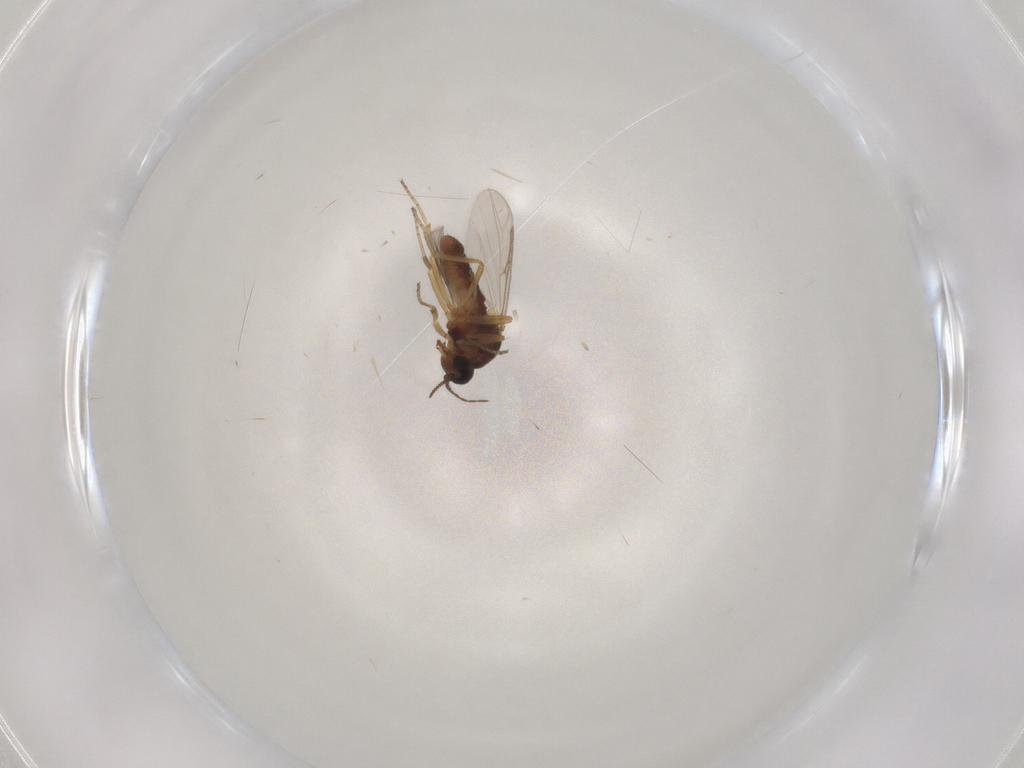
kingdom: Animalia
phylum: Arthropoda
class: Insecta
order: Diptera
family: Ceratopogonidae
